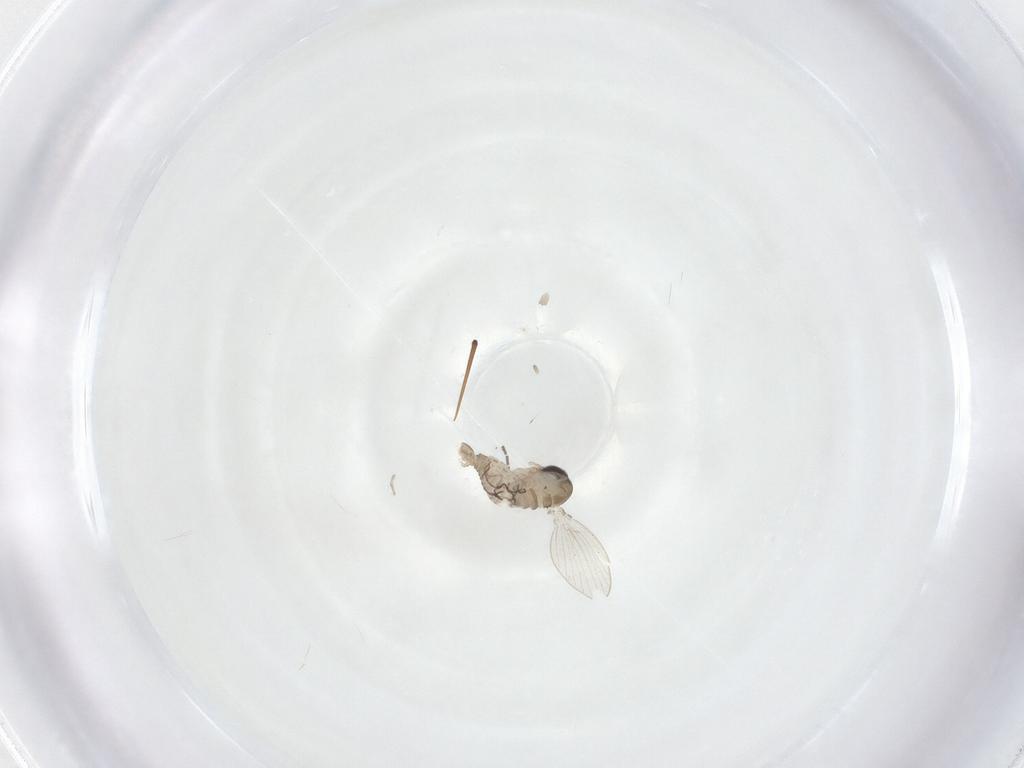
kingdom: Animalia
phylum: Arthropoda
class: Insecta
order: Diptera
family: Psychodidae
